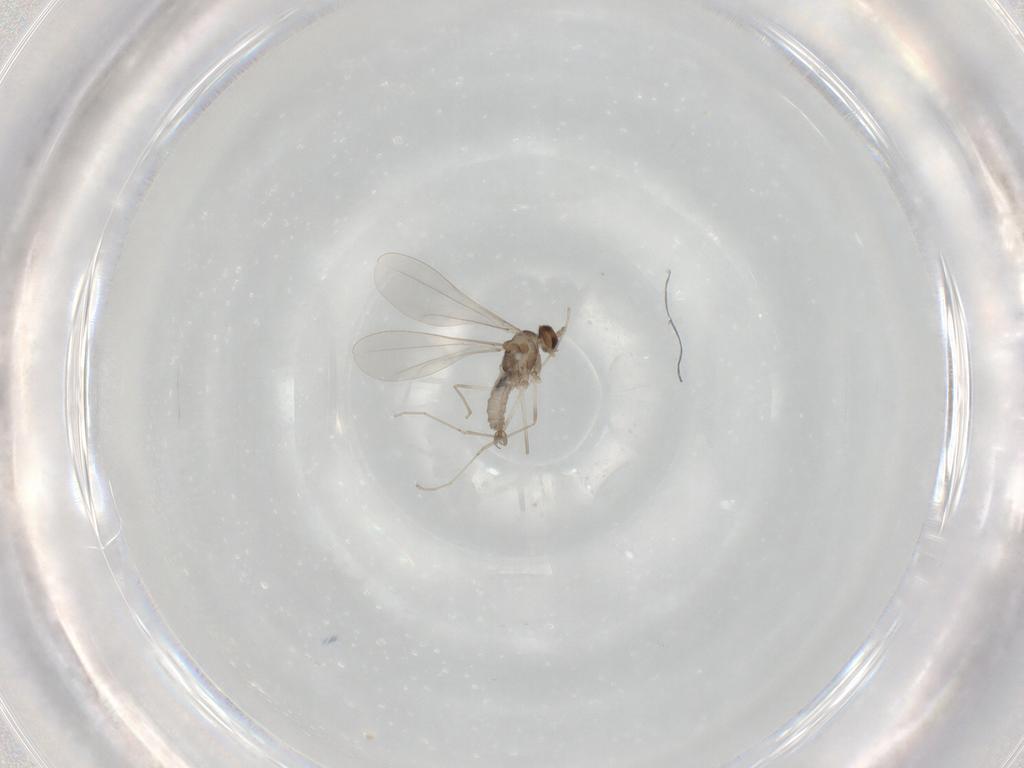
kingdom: Animalia
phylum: Arthropoda
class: Insecta
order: Diptera
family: Cecidomyiidae
